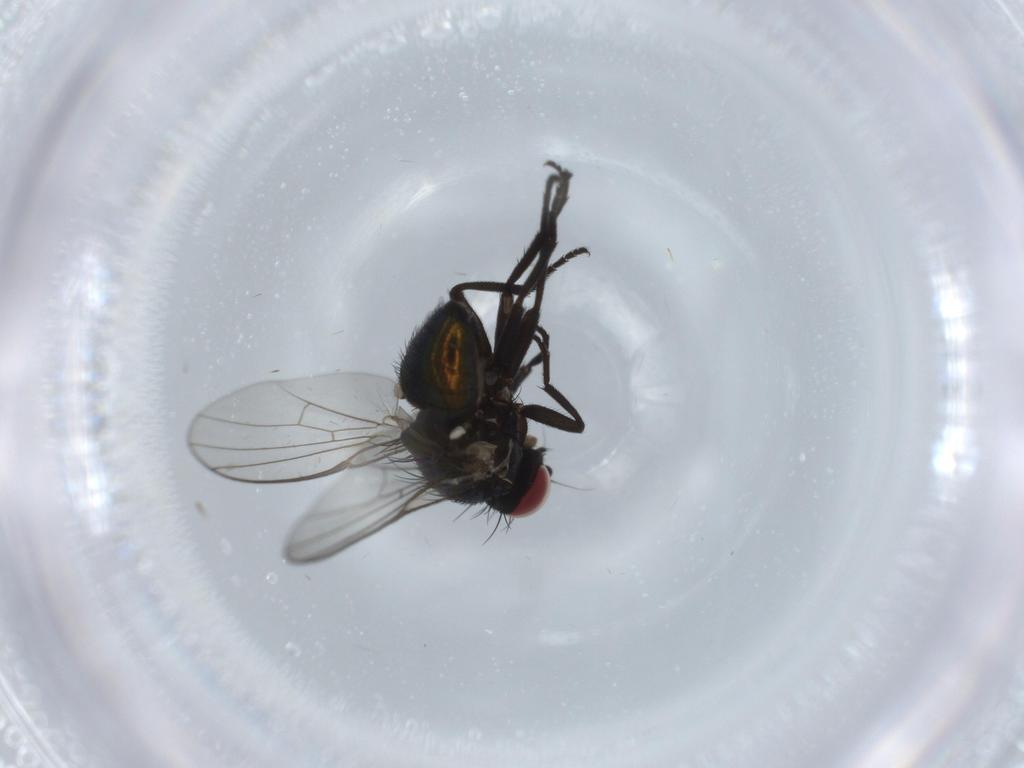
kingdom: Animalia
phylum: Arthropoda
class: Insecta
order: Diptera
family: Agromyzidae
